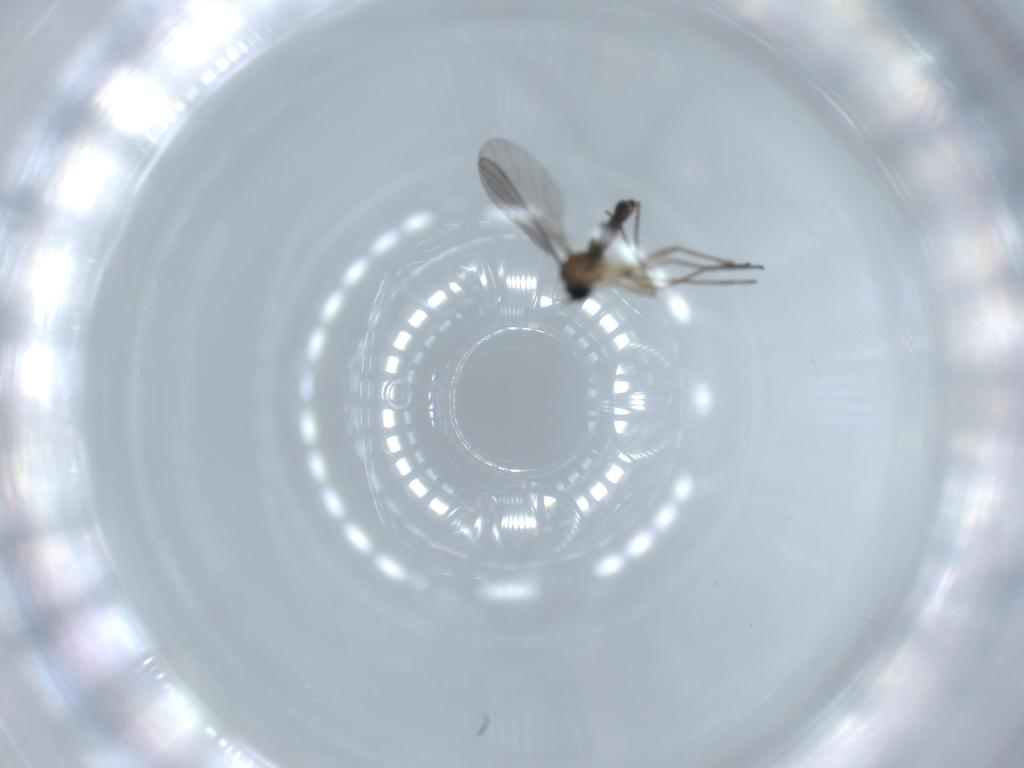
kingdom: Animalia
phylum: Arthropoda
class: Insecta
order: Diptera
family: Sciaridae
